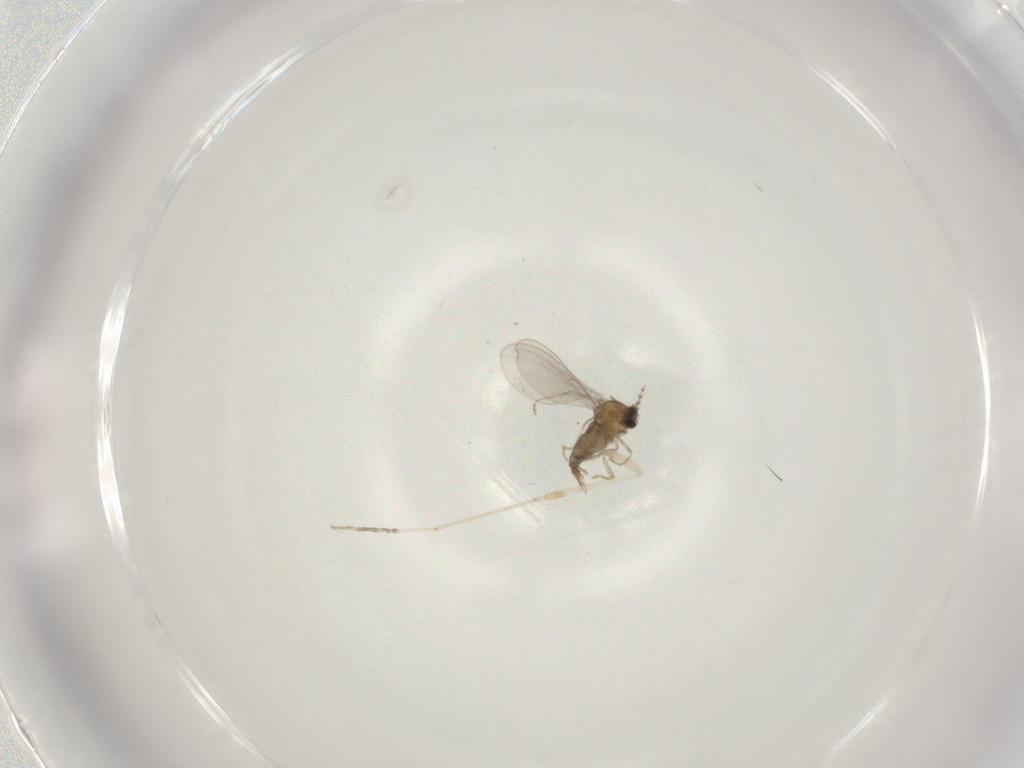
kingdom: Animalia
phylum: Arthropoda
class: Insecta
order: Diptera
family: Cecidomyiidae
